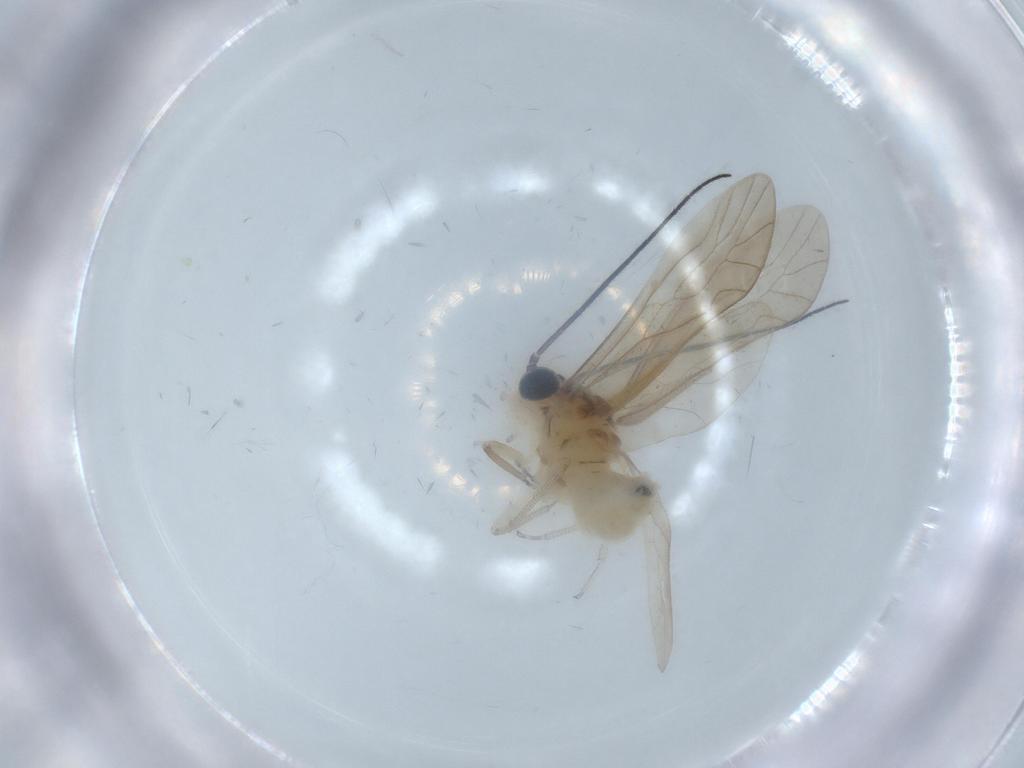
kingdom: Animalia
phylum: Arthropoda
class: Insecta
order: Psocodea
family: Caeciliusidae
